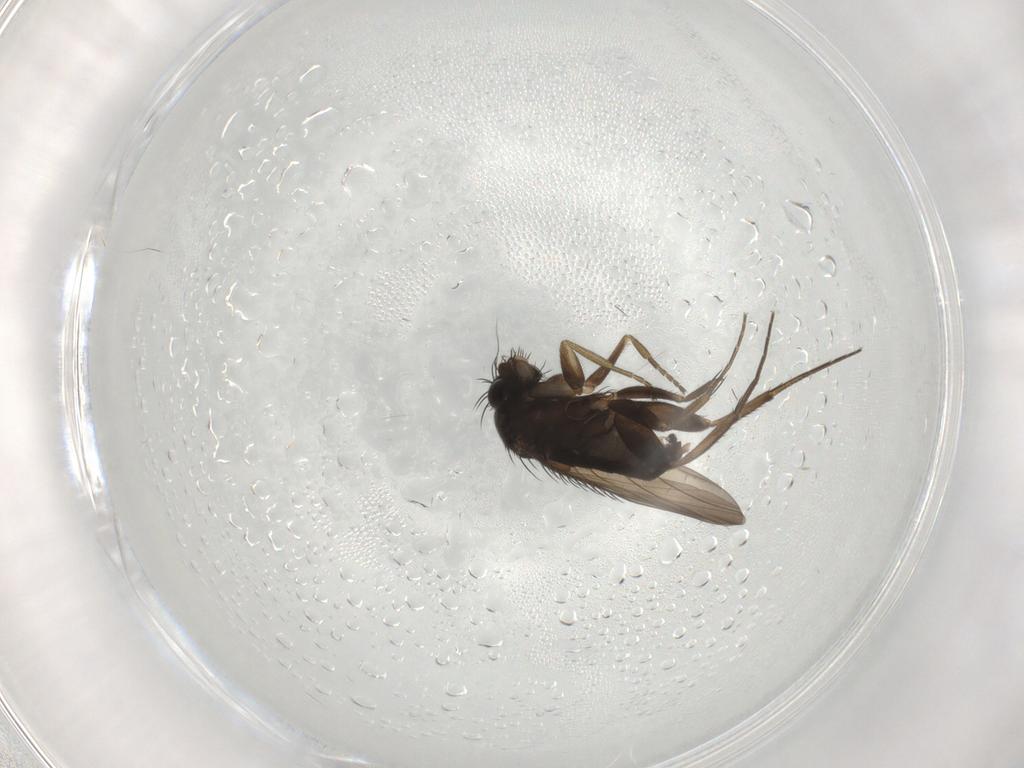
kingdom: Animalia
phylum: Arthropoda
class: Insecta
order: Diptera
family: Phoridae
